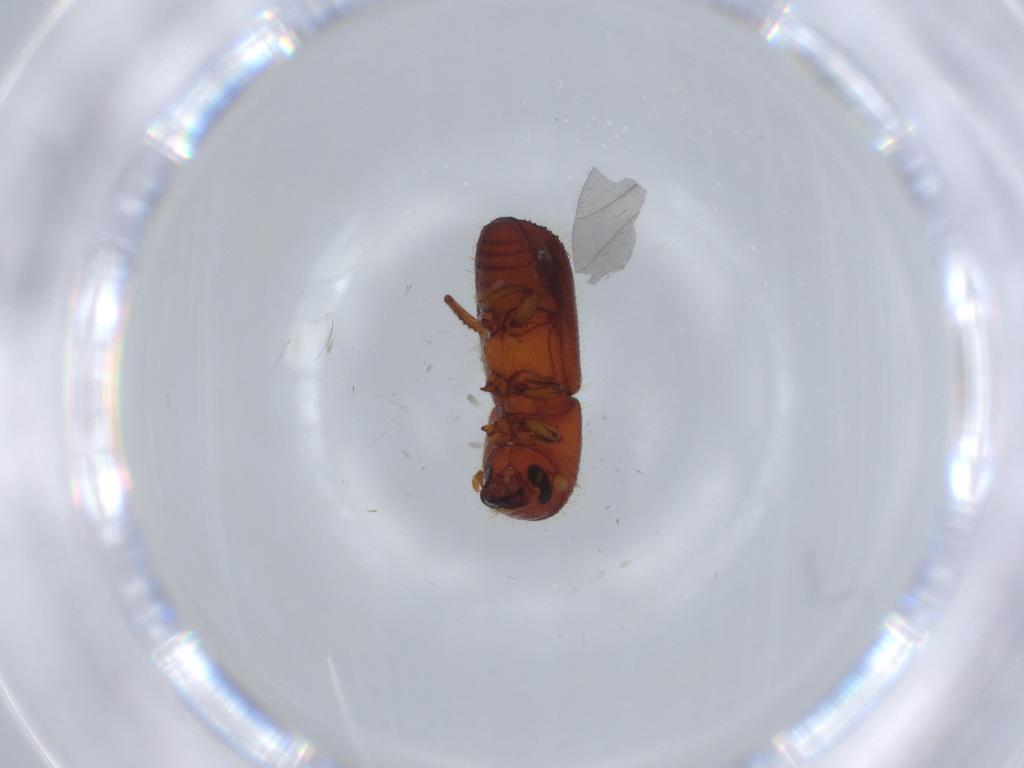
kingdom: Animalia
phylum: Arthropoda
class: Insecta
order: Coleoptera
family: Curculionidae
